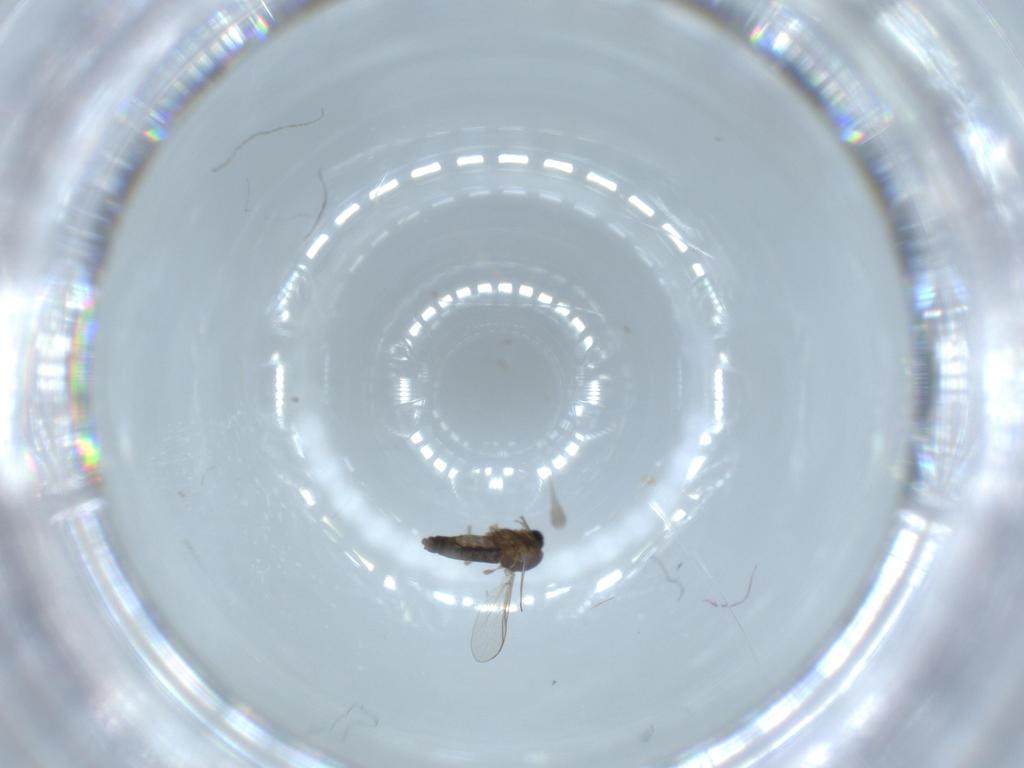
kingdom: Animalia
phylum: Arthropoda
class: Insecta
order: Diptera
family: Chironomidae
